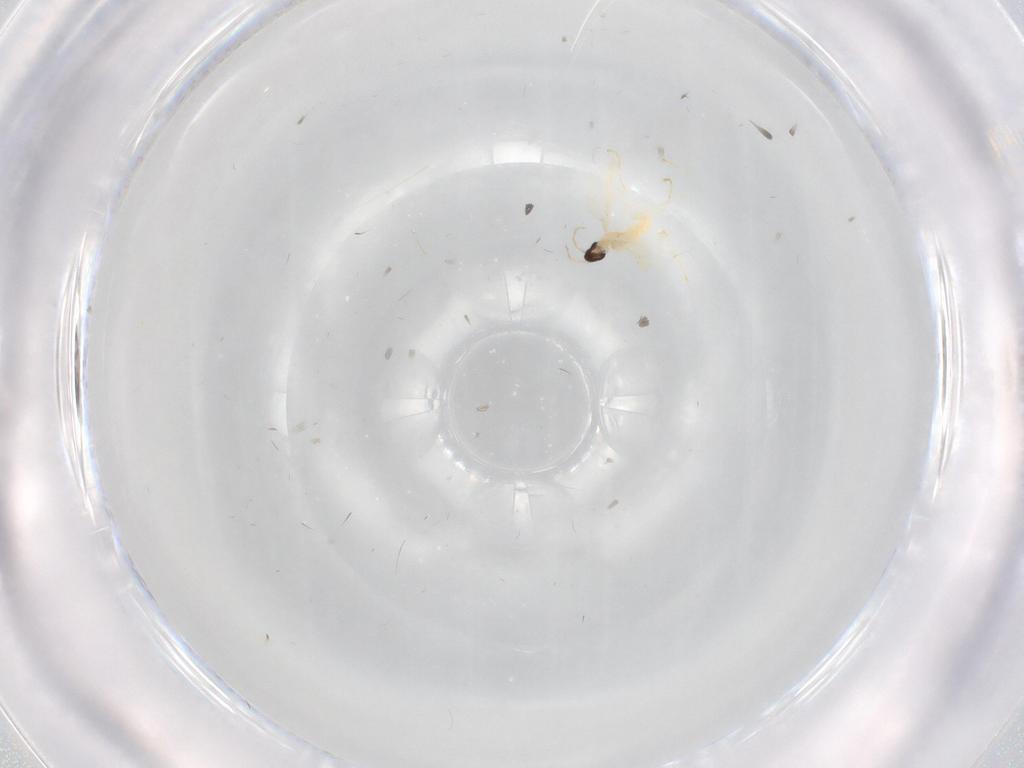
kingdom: Animalia
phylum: Arthropoda
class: Insecta
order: Diptera
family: Cecidomyiidae
